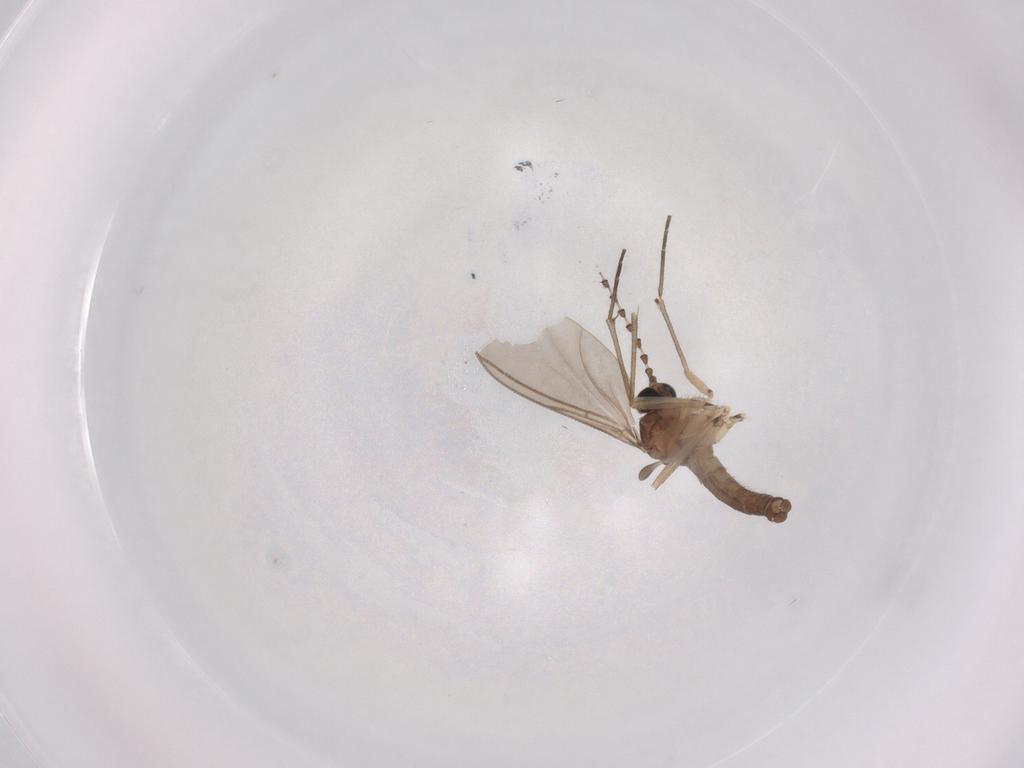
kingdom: Animalia
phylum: Arthropoda
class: Insecta
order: Diptera
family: Sciaridae
